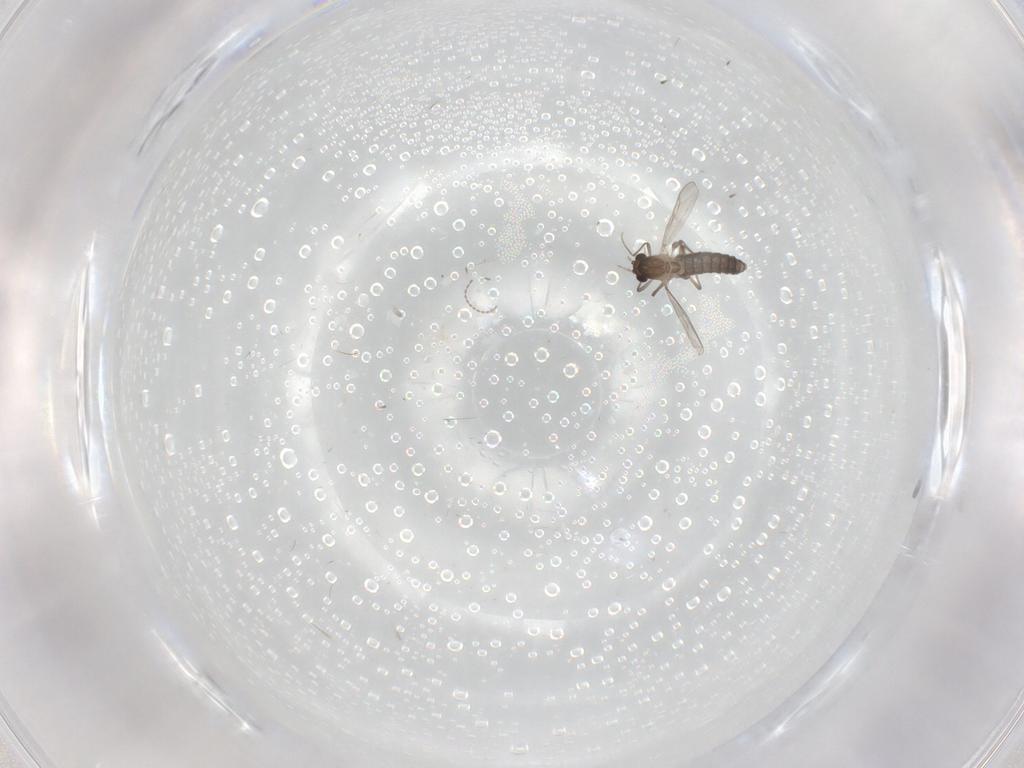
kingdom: Animalia
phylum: Arthropoda
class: Insecta
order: Diptera
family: Chironomidae
